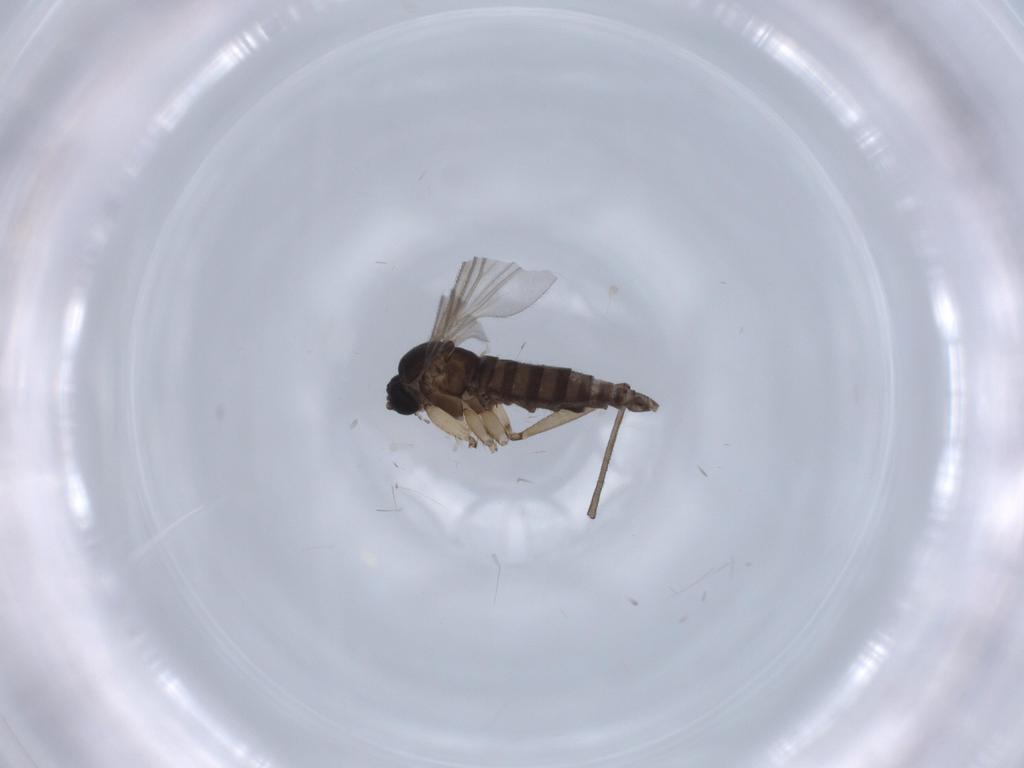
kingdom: Animalia
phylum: Arthropoda
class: Insecta
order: Diptera
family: Sciaridae
